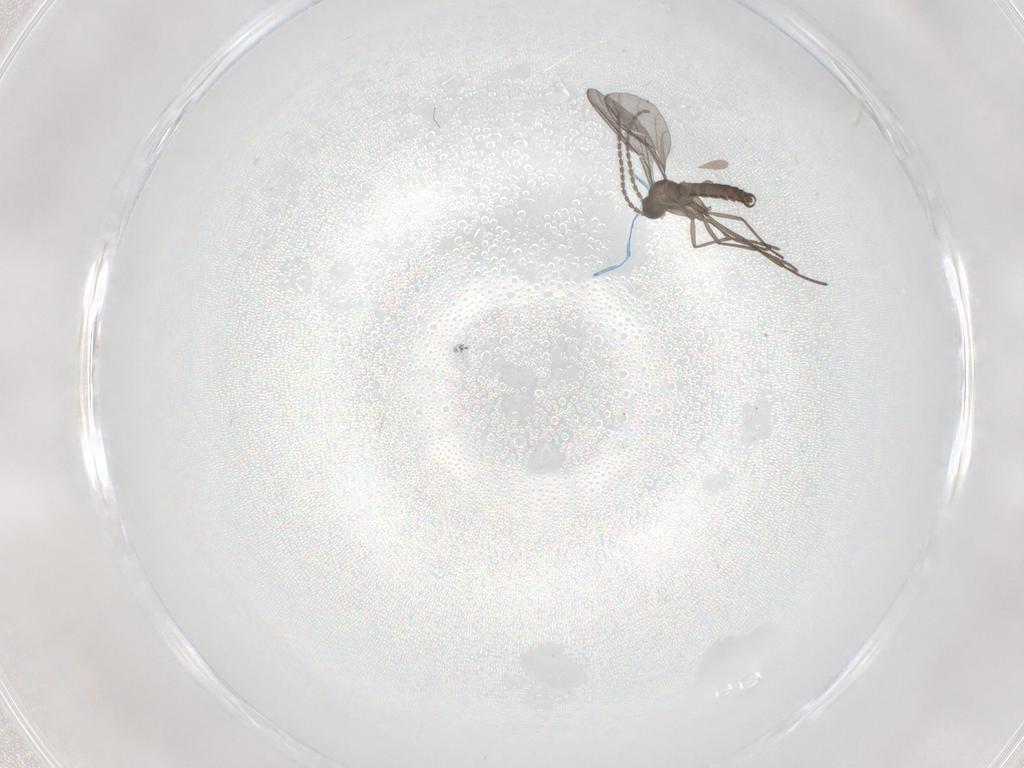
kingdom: Animalia
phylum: Arthropoda
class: Insecta
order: Diptera
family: Sciaridae
